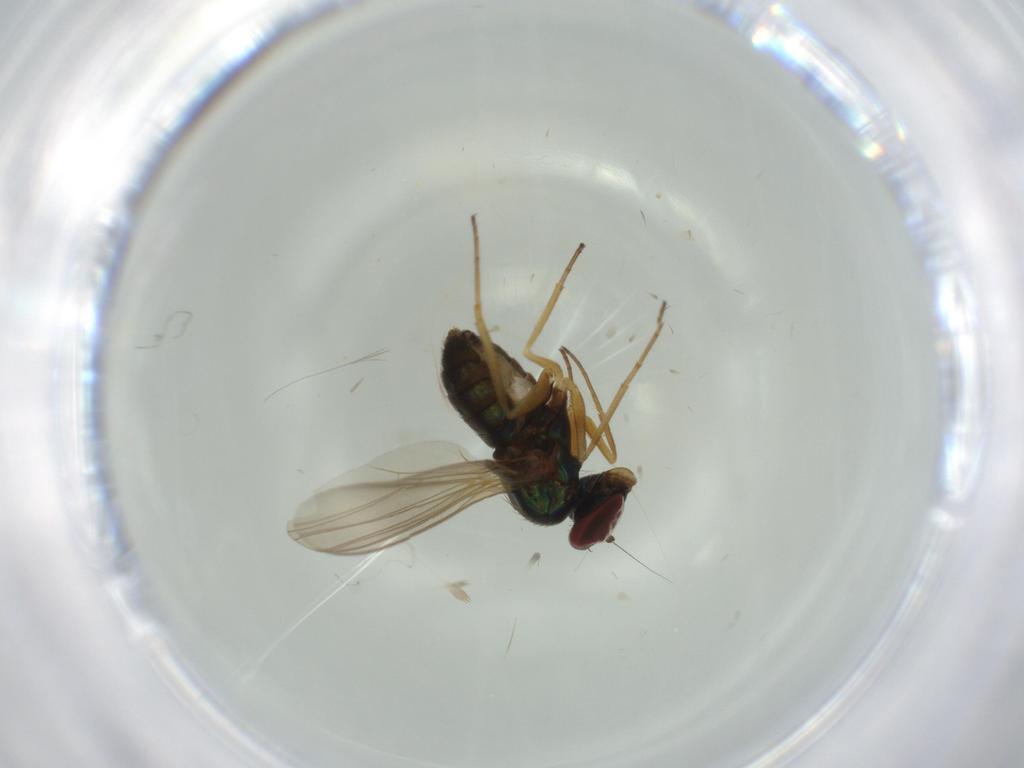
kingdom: Animalia
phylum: Arthropoda
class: Insecta
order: Diptera
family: Dolichopodidae
